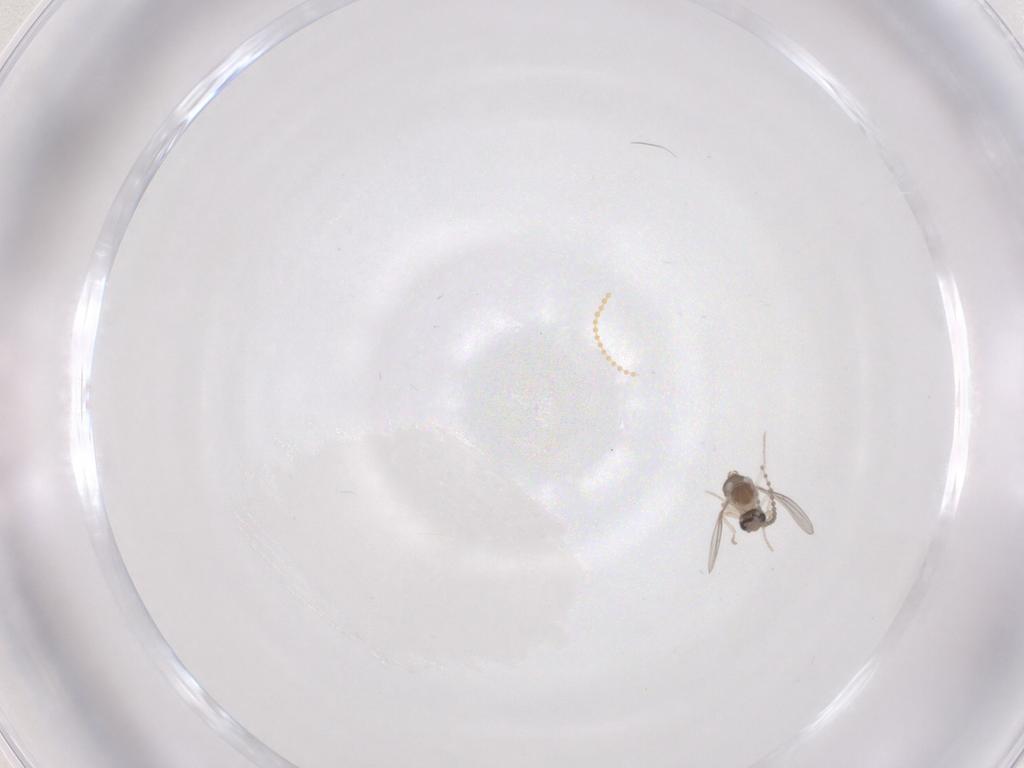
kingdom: Animalia
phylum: Arthropoda
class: Insecta
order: Diptera
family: Cecidomyiidae
